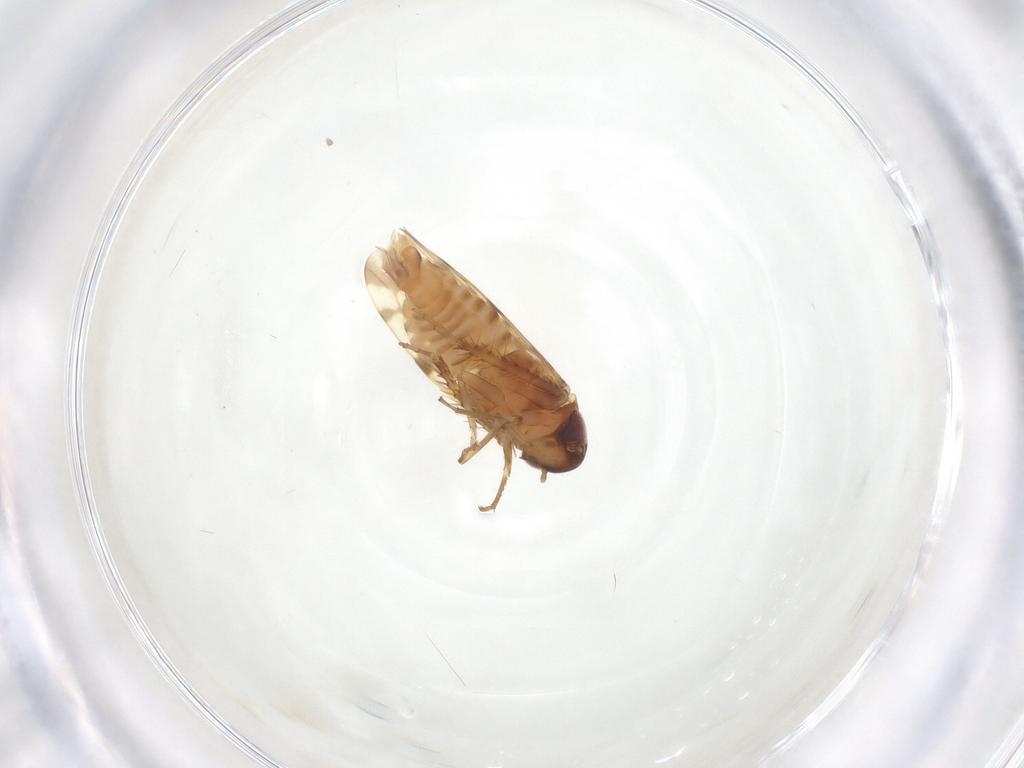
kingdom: Animalia
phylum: Arthropoda
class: Insecta
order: Hemiptera
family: Cicadellidae
